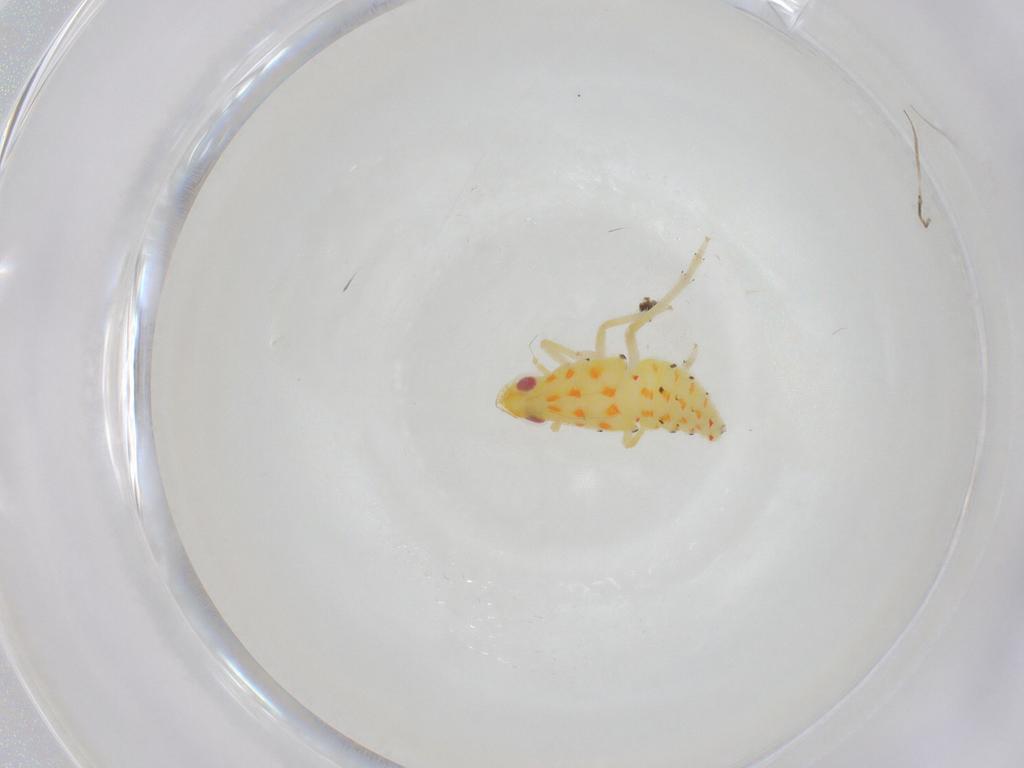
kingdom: Animalia
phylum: Arthropoda
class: Insecta
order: Hemiptera
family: Tropiduchidae
